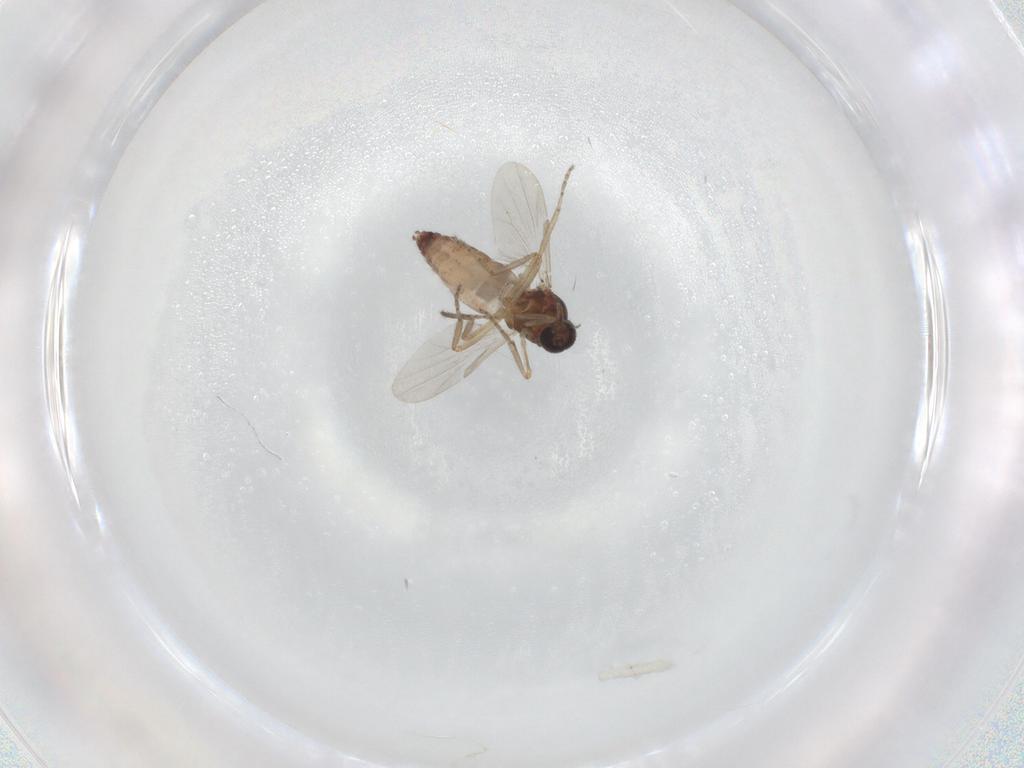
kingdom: Animalia
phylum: Arthropoda
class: Insecta
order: Diptera
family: Ceratopogonidae
